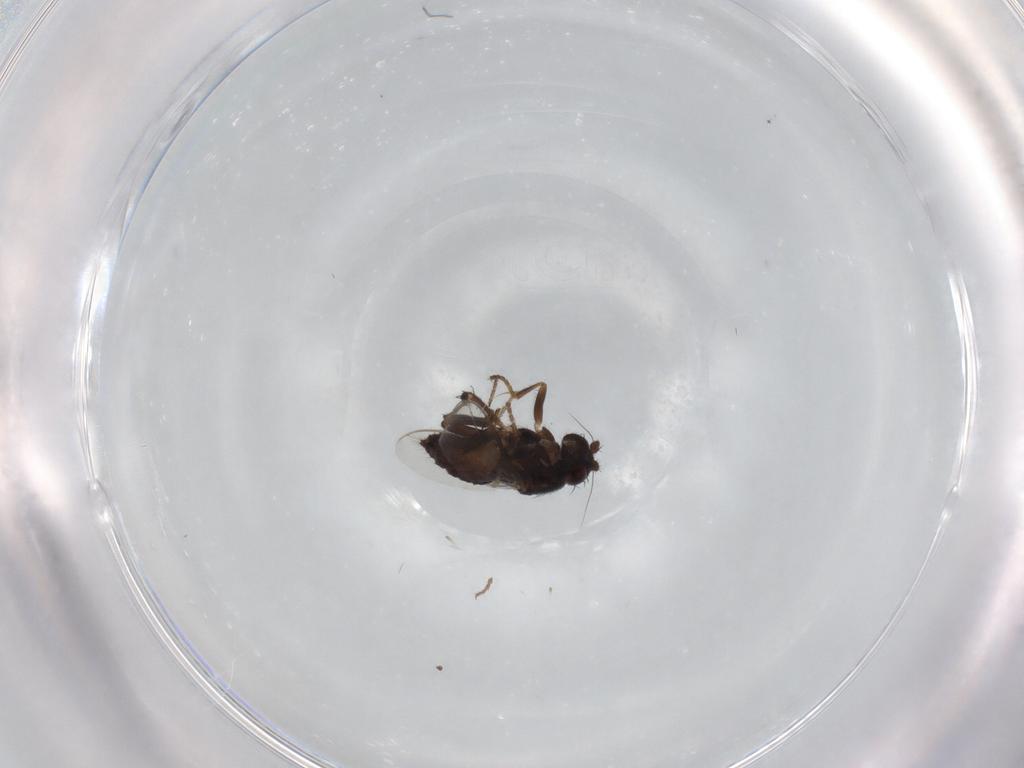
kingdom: Animalia
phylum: Arthropoda
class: Insecta
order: Diptera
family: Sphaeroceridae
